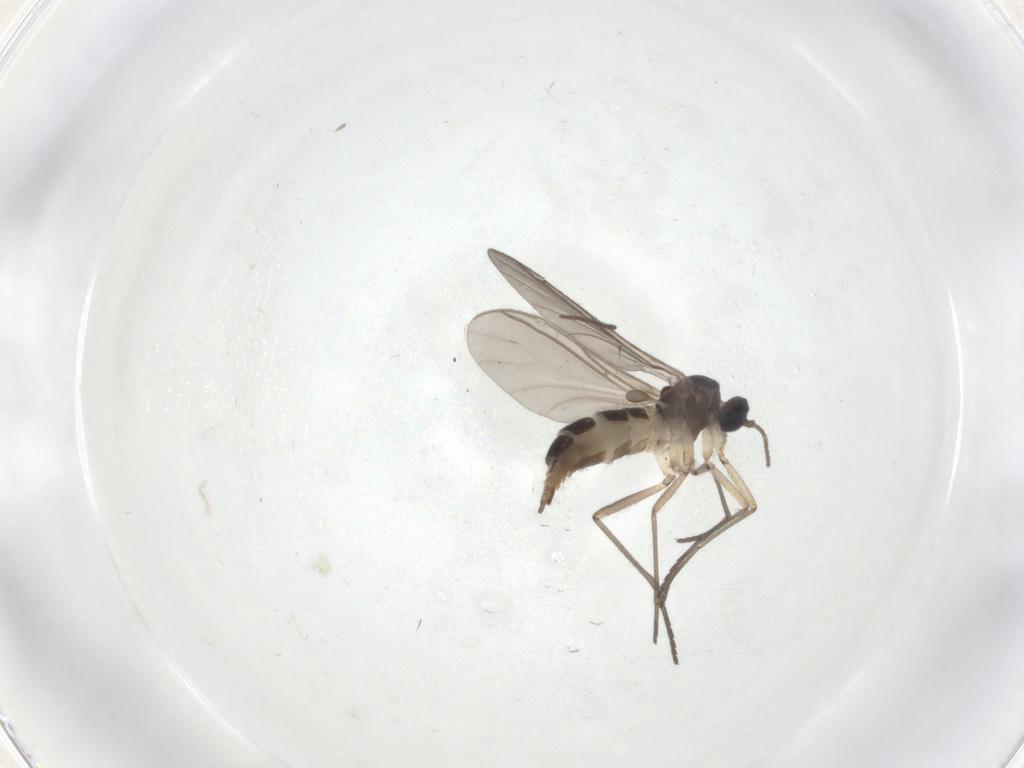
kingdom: Animalia
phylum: Arthropoda
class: Insecta
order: Diptera
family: Sciaridae
